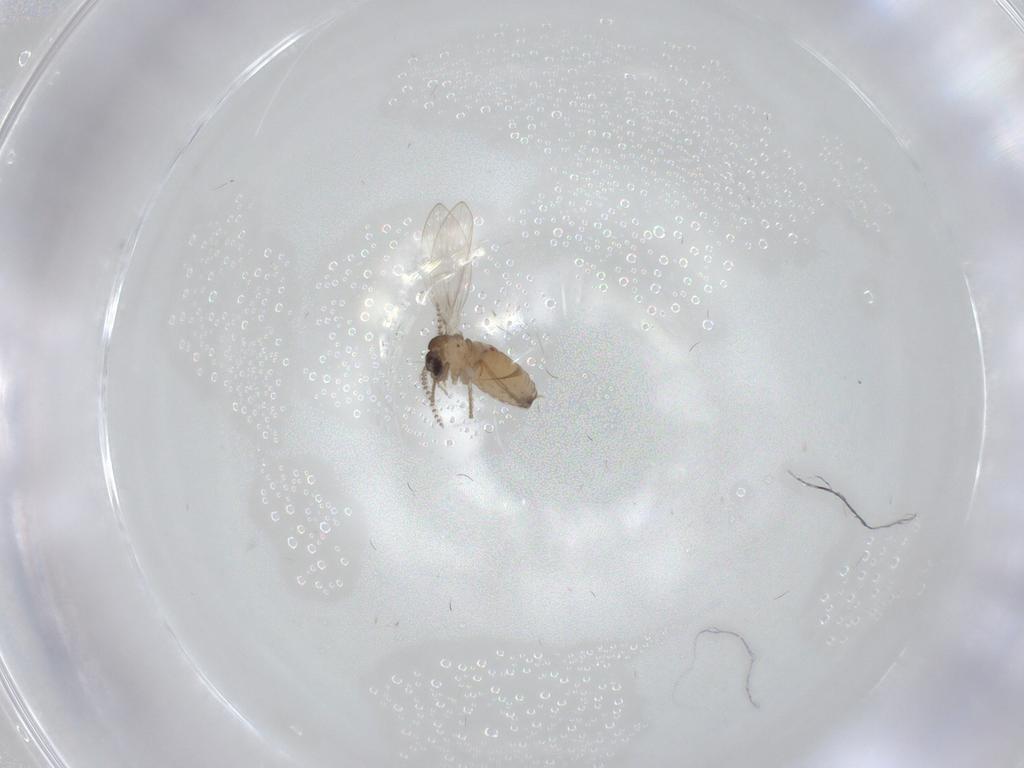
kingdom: Animalia
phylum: Arthropoda
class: Insecta
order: Diptera
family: Psychodidae
